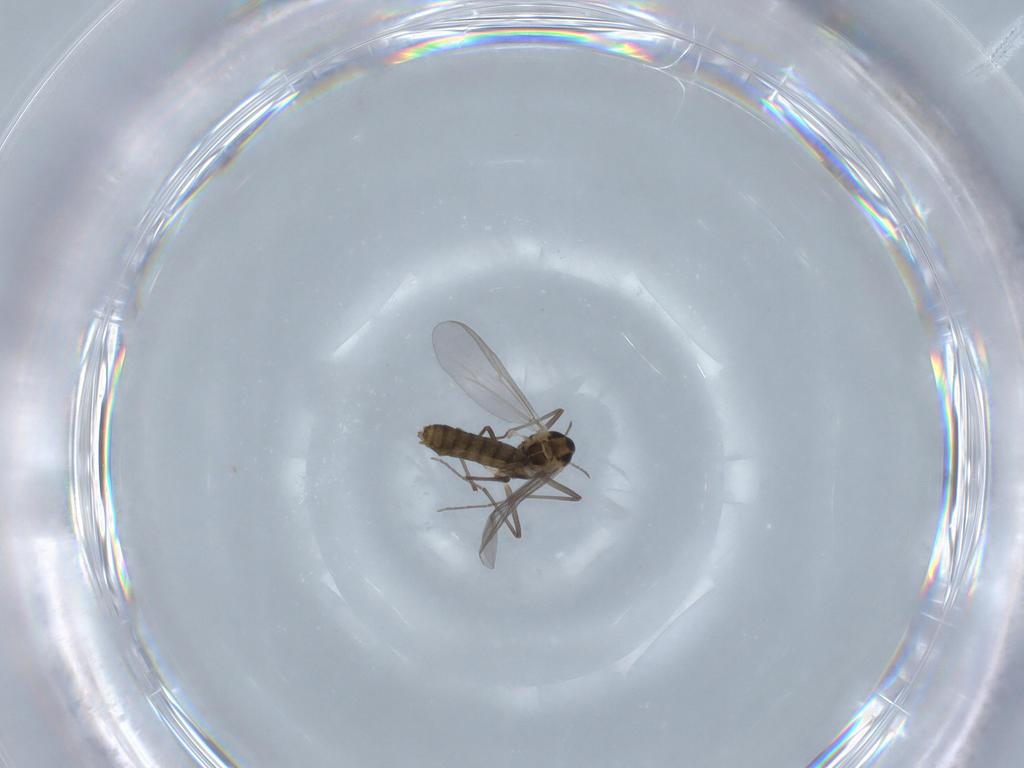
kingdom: Animalia
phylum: Arthropoda
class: Insecta
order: Diptera
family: Chironomidae
